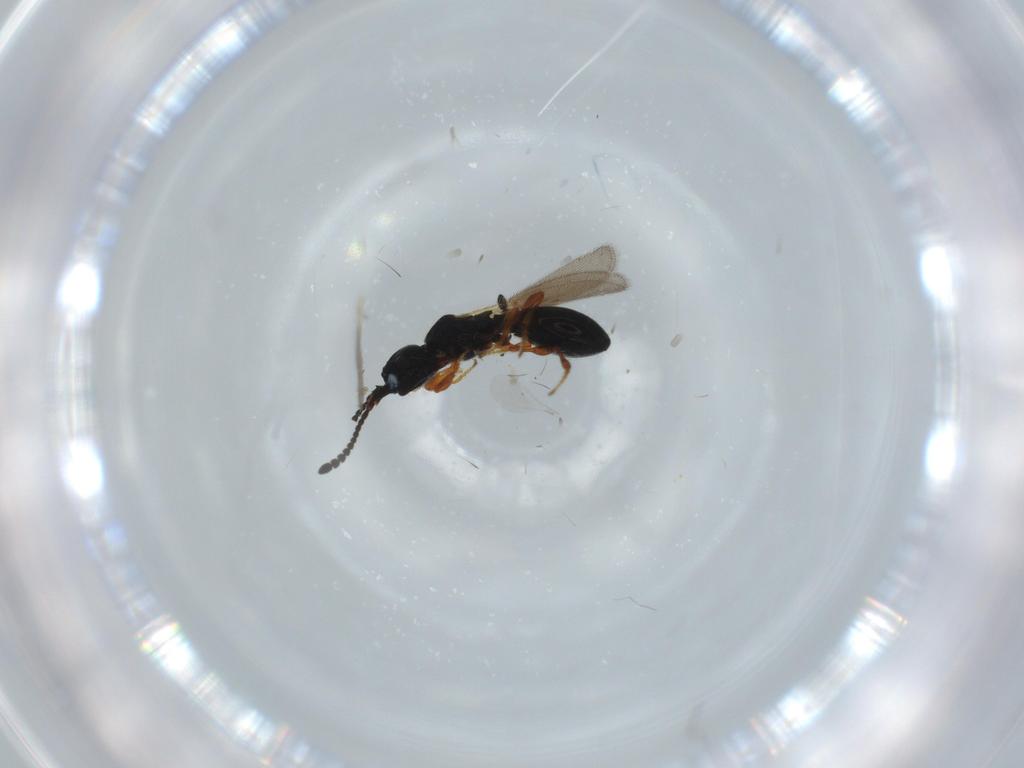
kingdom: Animalia
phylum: Arthropoda
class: Insecta
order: Hymenoptera
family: Diapriidae
